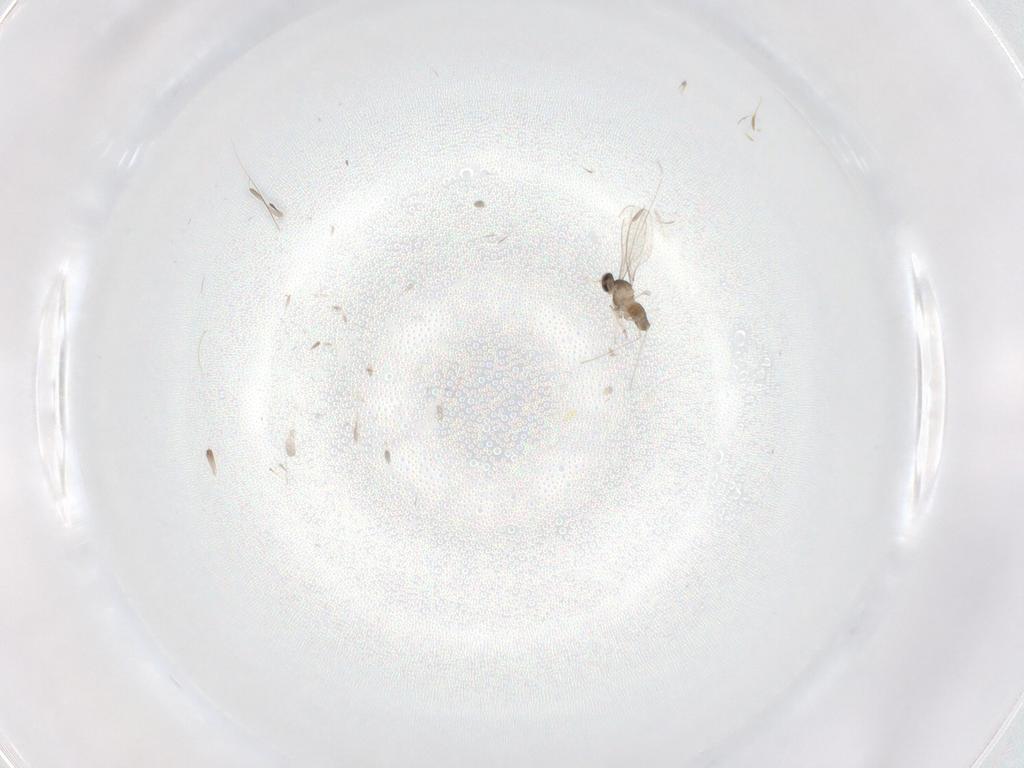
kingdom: Animalia
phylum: Arthropoda
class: Insecta
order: Diptera
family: Cecidomyiidae
